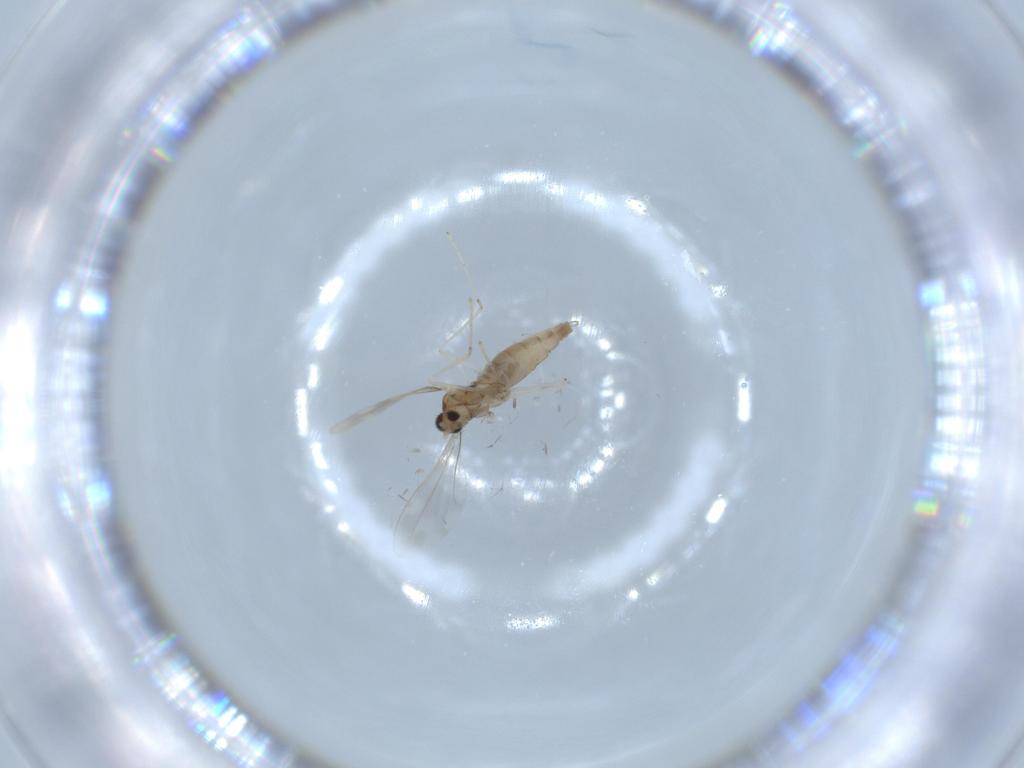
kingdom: Animalia
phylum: Arthropoda
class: Insecta
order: Diptera
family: Cecidomyiidae
